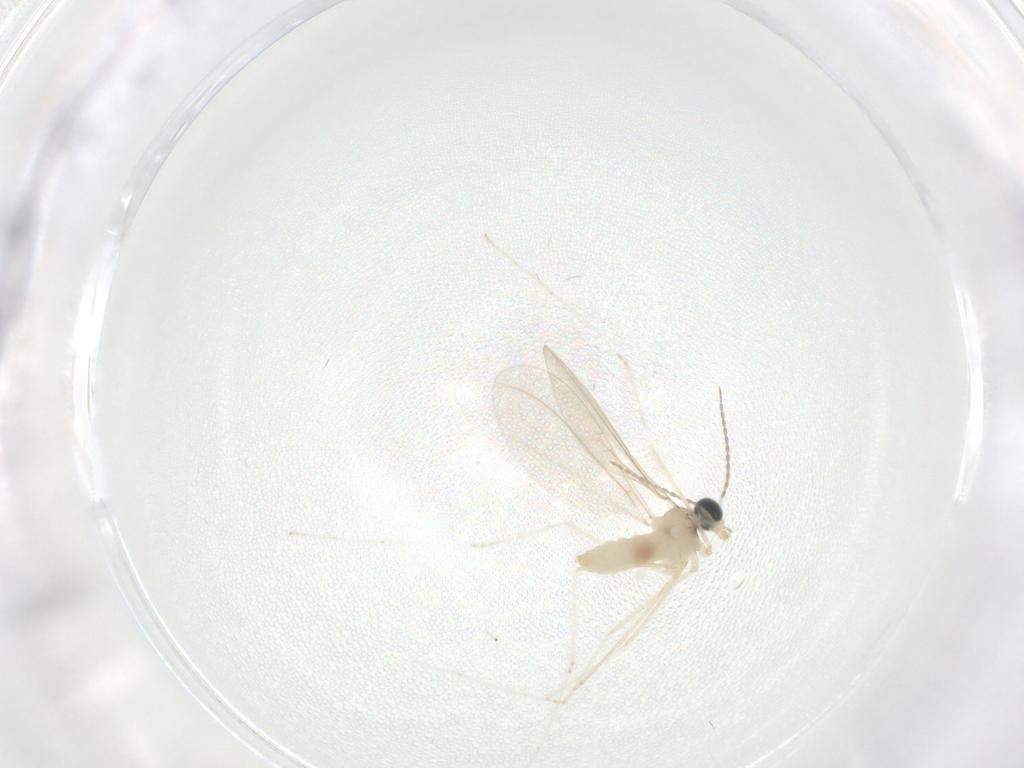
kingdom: Animalia
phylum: Arthropoda
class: Insecta
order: Diptera
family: Cecidomyiidae
